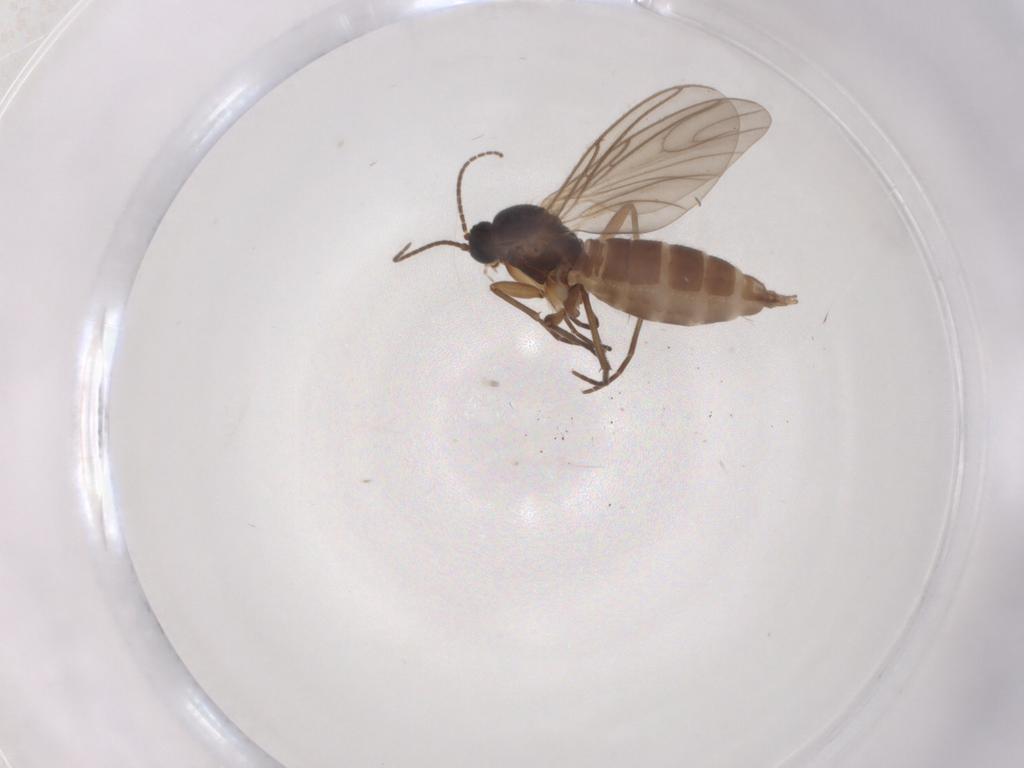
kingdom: Animalia
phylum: Arthropoda
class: Insecta
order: Diptera
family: Sciaridae
